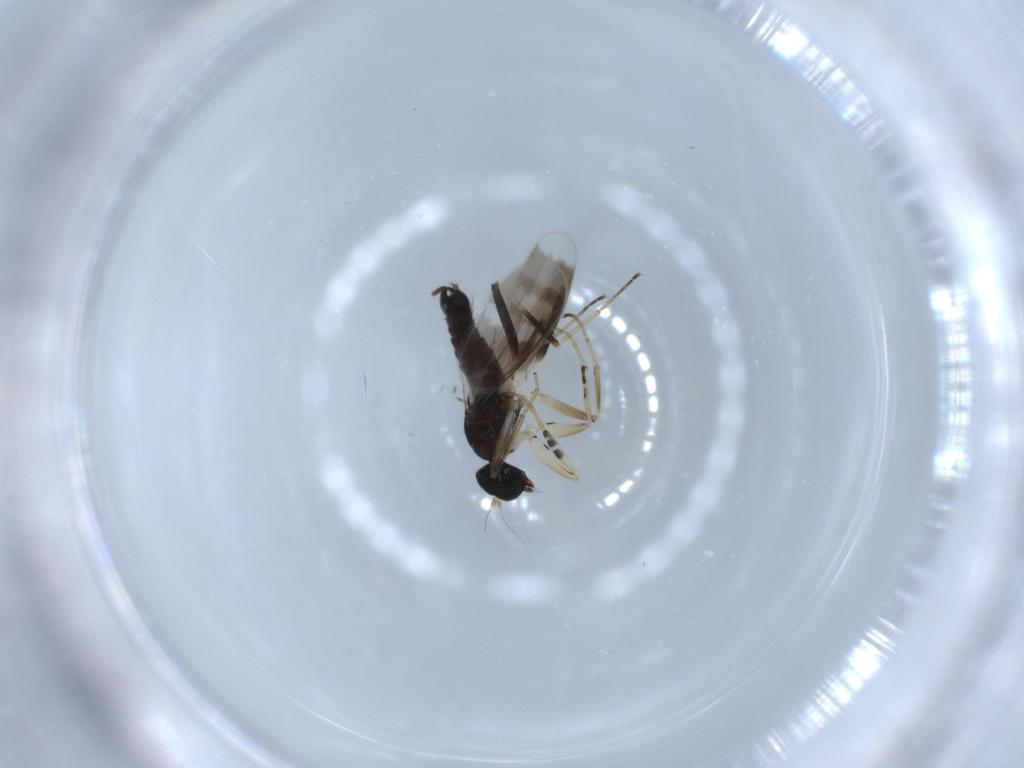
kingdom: Animalia
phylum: Arthropoda
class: Insecta
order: Diptera
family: Hybotidae
